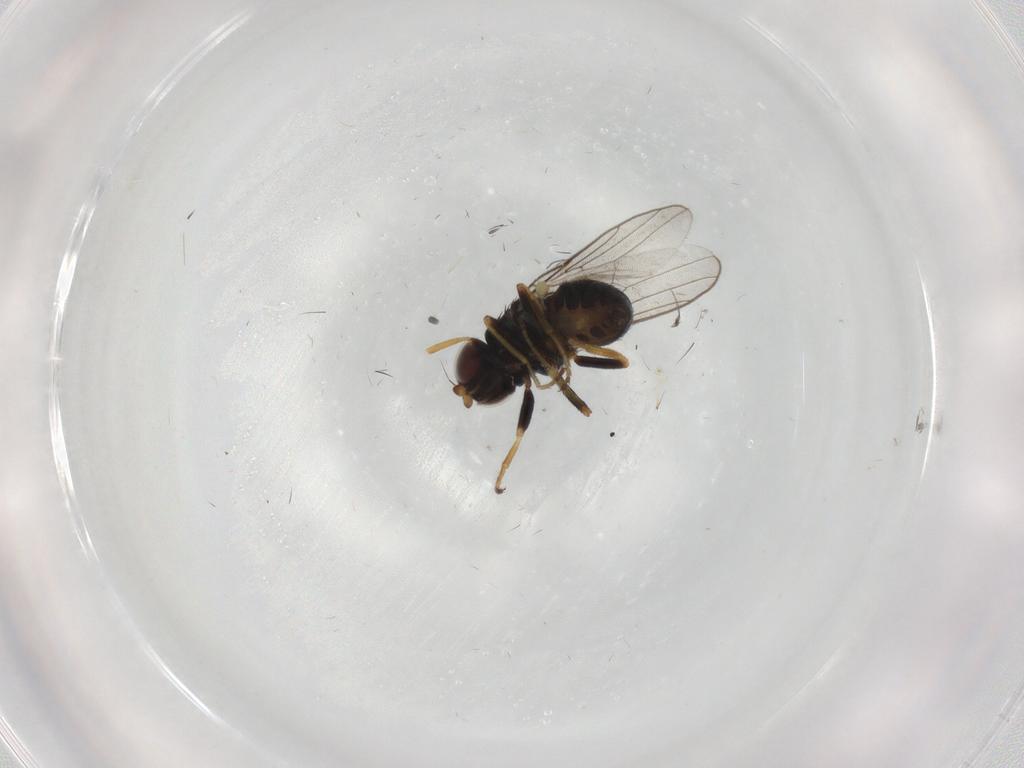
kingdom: Animalia
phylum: Arthropoda
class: Insecta
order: Diptera
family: Chloropidae
